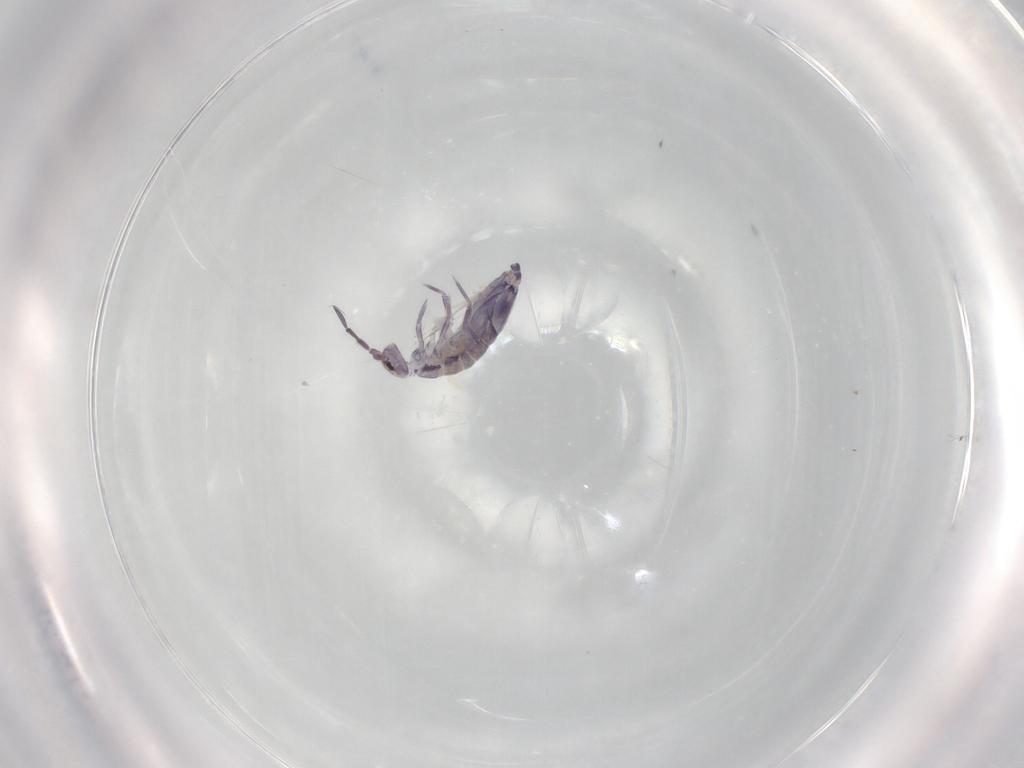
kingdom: Animalia
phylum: Arthropoda
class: Collembola
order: Entomobryomorpha
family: Entomobryidae
